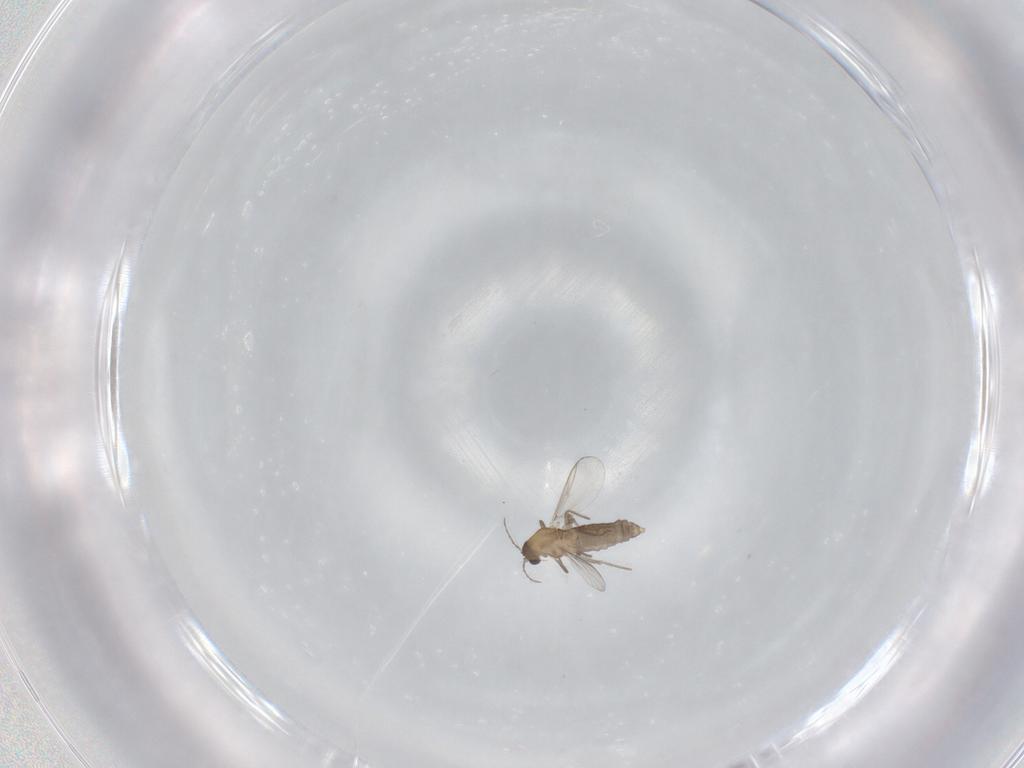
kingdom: Animalia
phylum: Arthropoda
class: Insecta
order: Diptera
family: Chironomidae
